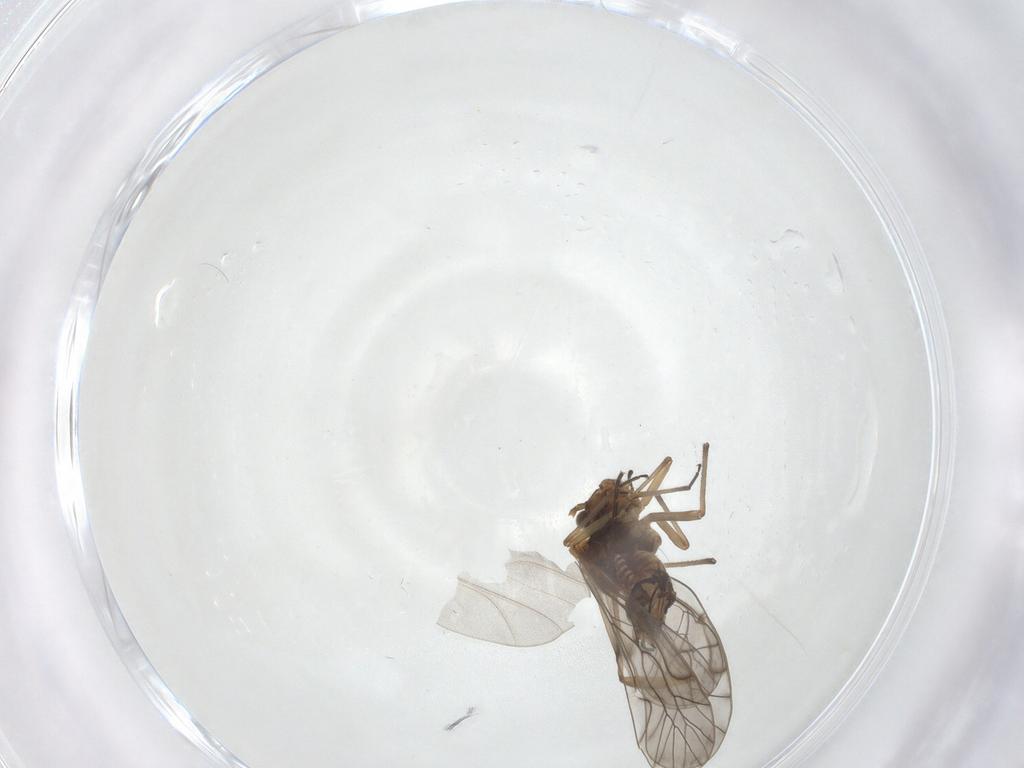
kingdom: Animalia
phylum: Arthropoda
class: Insecta
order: Psocodea
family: Lachesillidae
